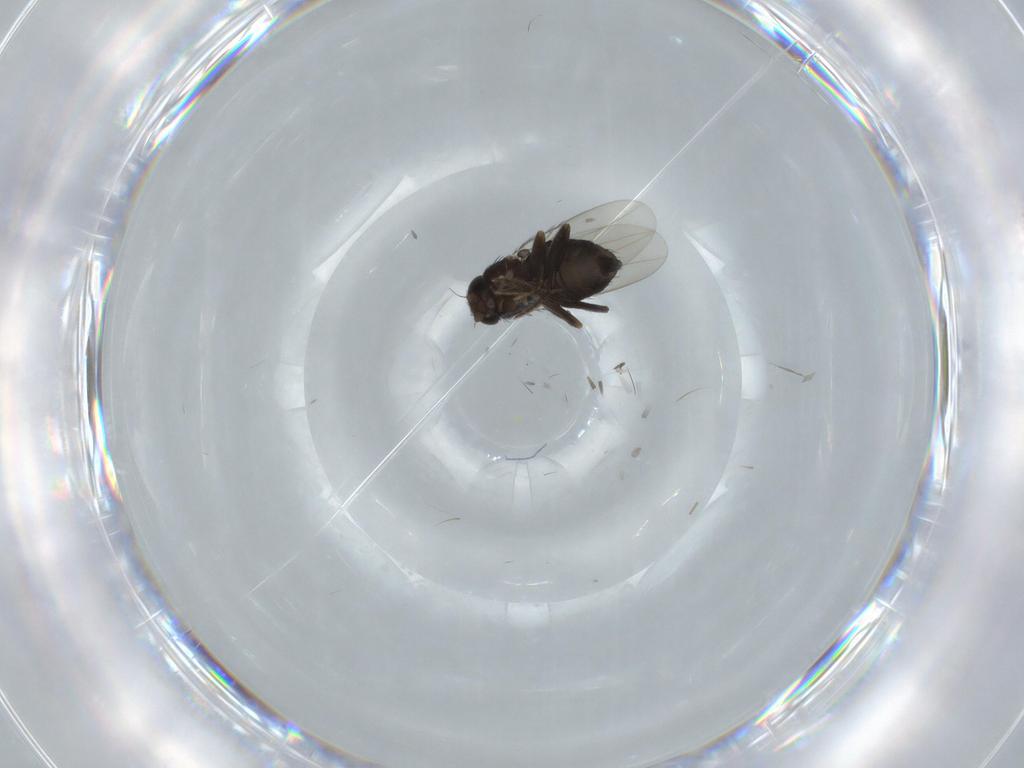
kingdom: Animalia
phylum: Arthropoda
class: Insecta
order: Diptera
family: Phoridae
